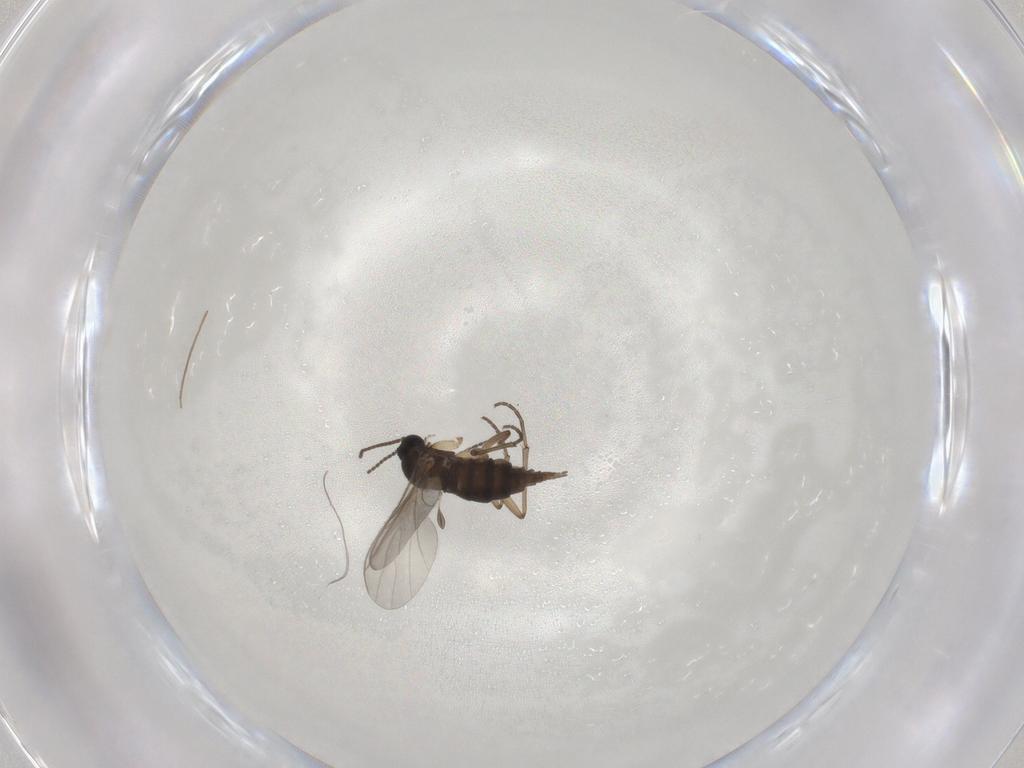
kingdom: Animalia
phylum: Arthropoda
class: Insecta
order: Diptera
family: Sciaridae
